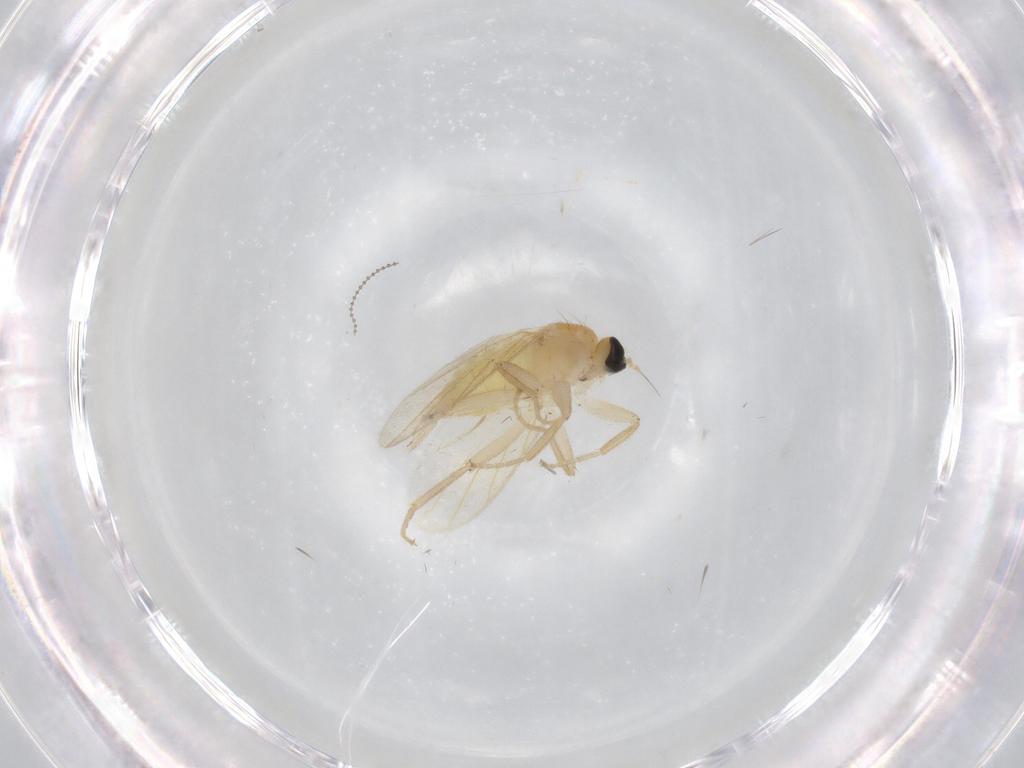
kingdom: Animalia
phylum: Arthropoda
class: Insecta
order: Diptera
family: Hybotidae
